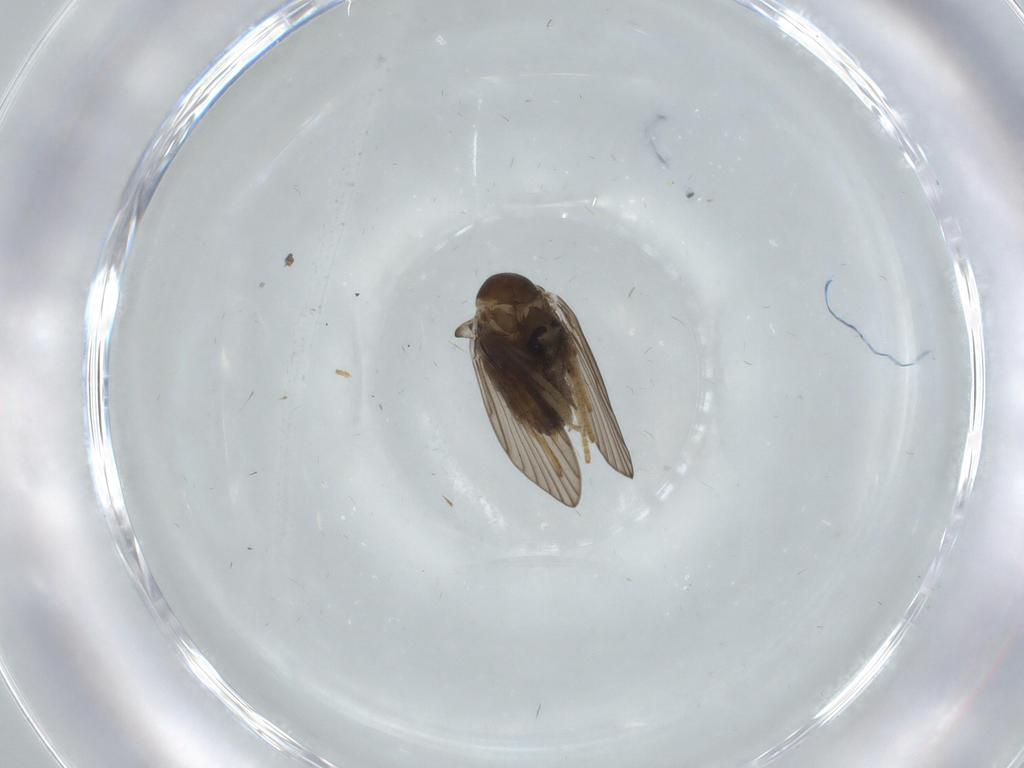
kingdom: Animalia
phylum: Arthropoda
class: Insecta
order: Diptera
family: Psychodidae
